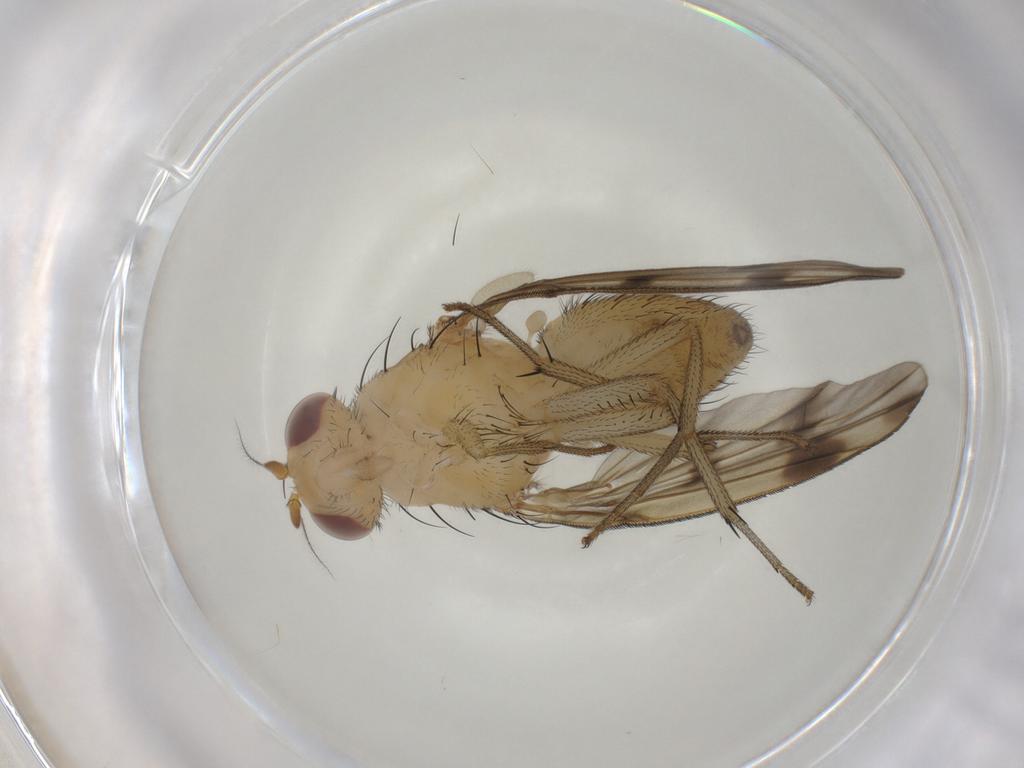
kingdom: Animalia
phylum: Arthropoda
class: Insecta
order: Diptera
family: Lauxaniidae
